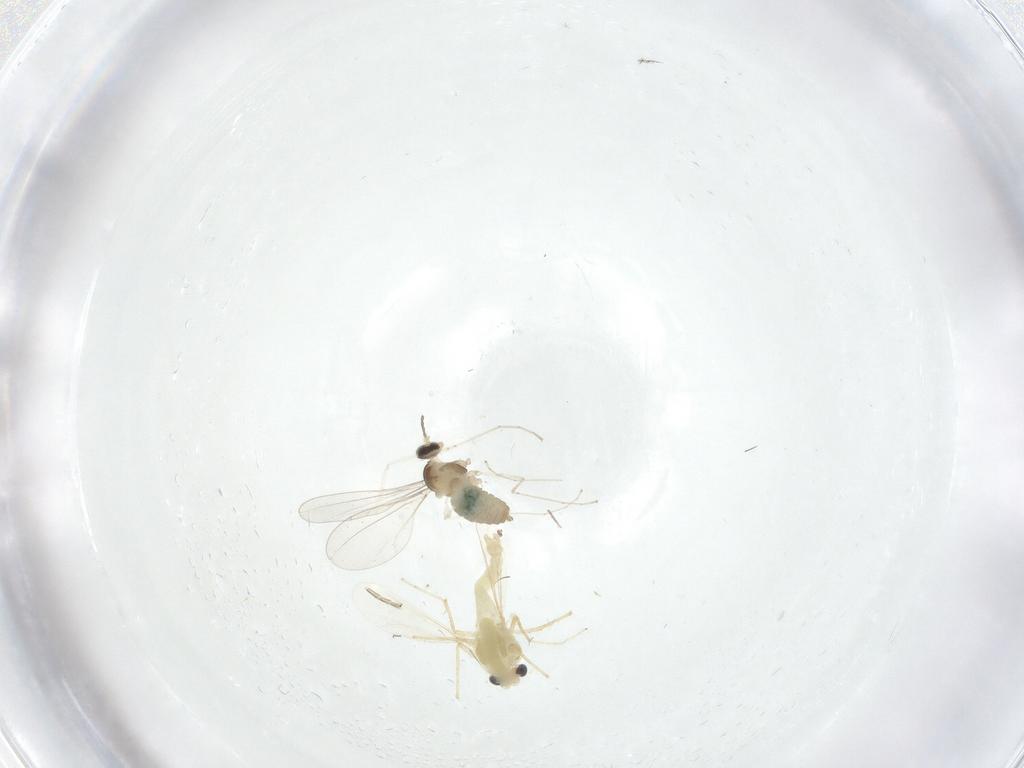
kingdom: Animalia
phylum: Arthropoda
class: Insecta
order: Diptera
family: Chironomidae
